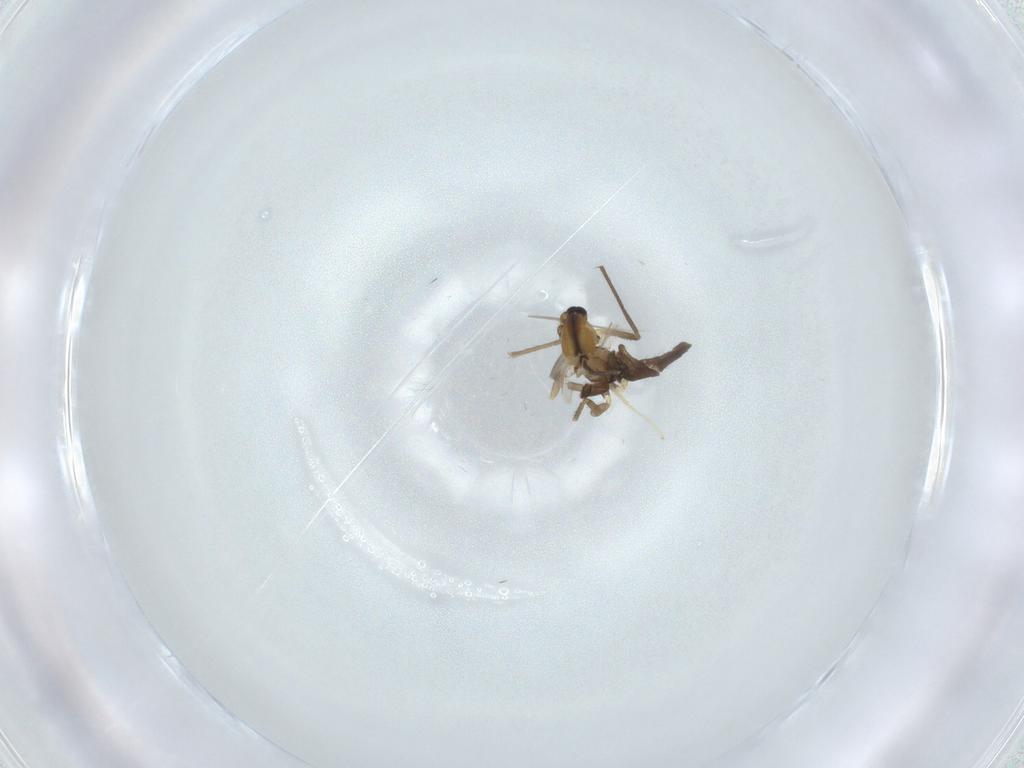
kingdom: Animalia
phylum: Arthropoda
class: Insecta
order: Diptera
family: Chironomidae
